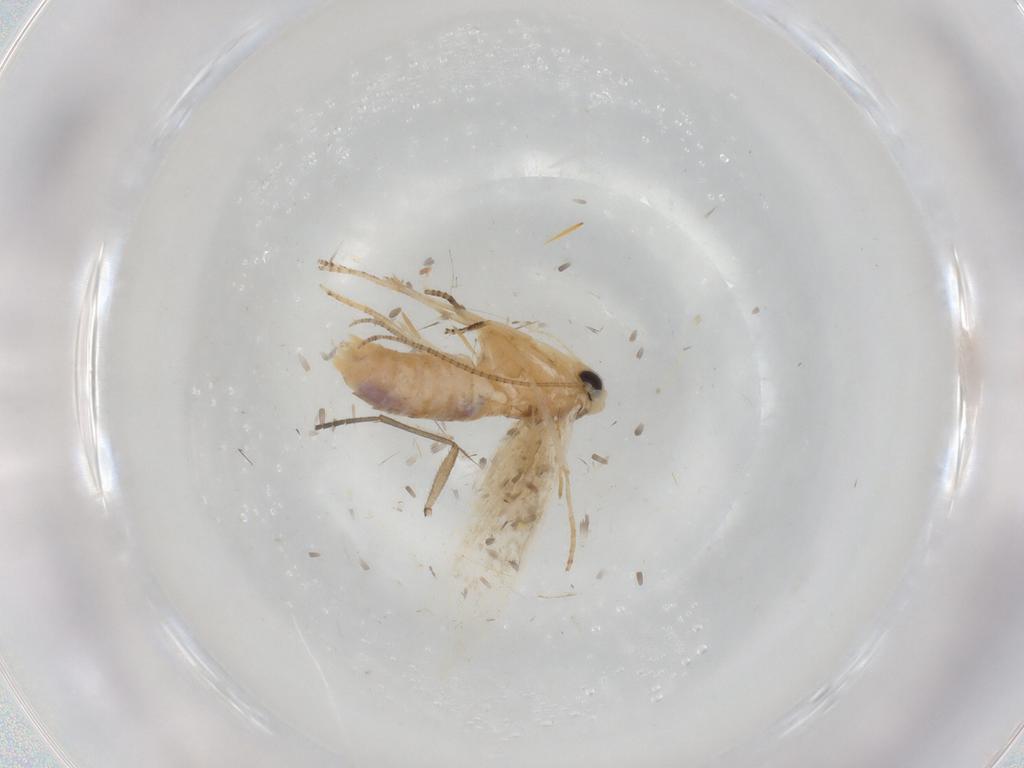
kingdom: Animalia
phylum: Arthropoda
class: Insecta
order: Lepidoptera
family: Bucculatricidae
